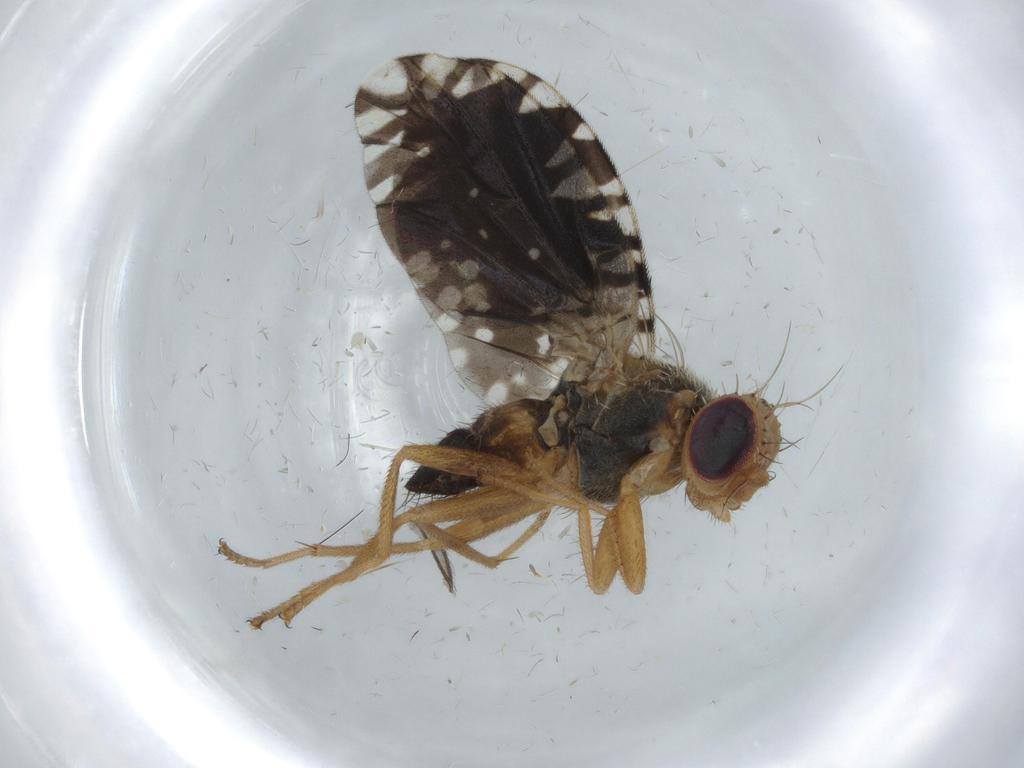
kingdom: Animalia
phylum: Arthropoda
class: Insecta
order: Diptera
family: Tephritidae
